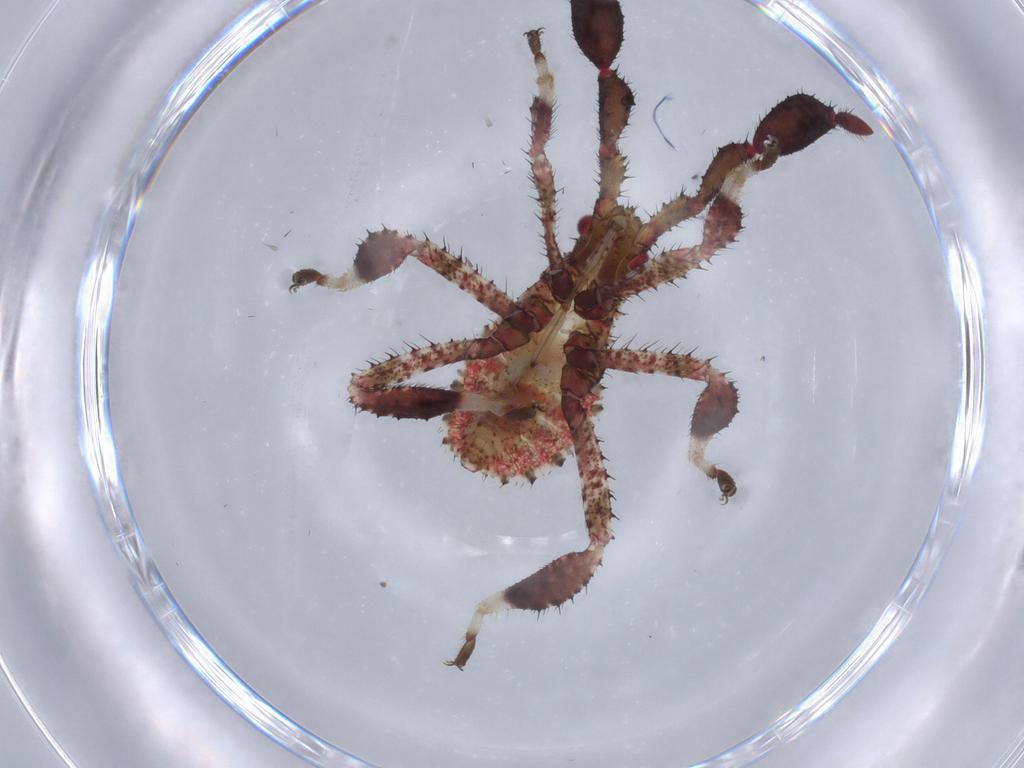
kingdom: Animalia
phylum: Arthropoda
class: Insecta
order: Hemiptera
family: Coreidae
